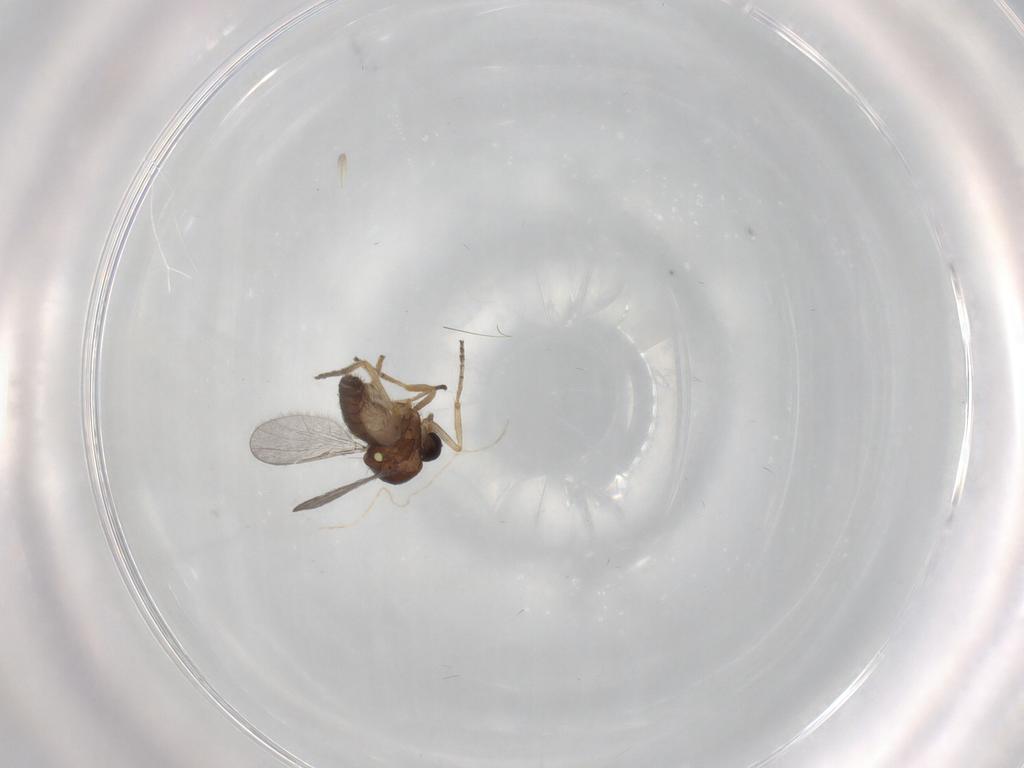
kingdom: Animalia
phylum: Arthropoda
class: Insecta
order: Diptera
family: Ceratopogonidae
